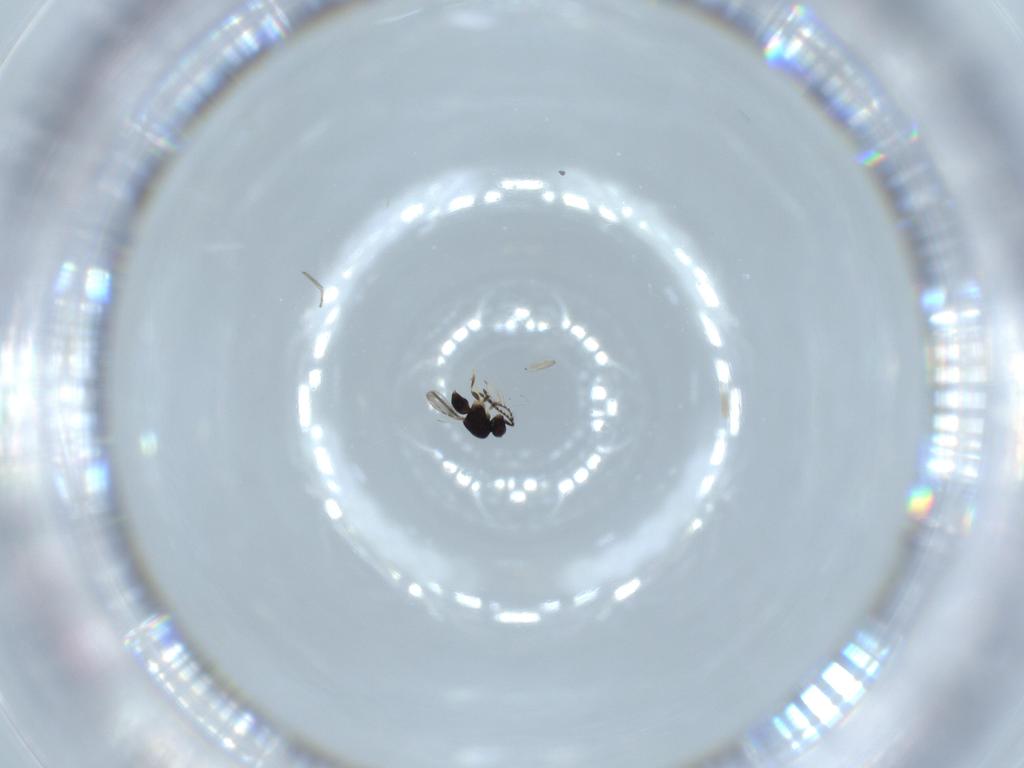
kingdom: Animalia
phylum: Arthropoda
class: Insecta
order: Hymenoptera
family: Ceraphronidae
